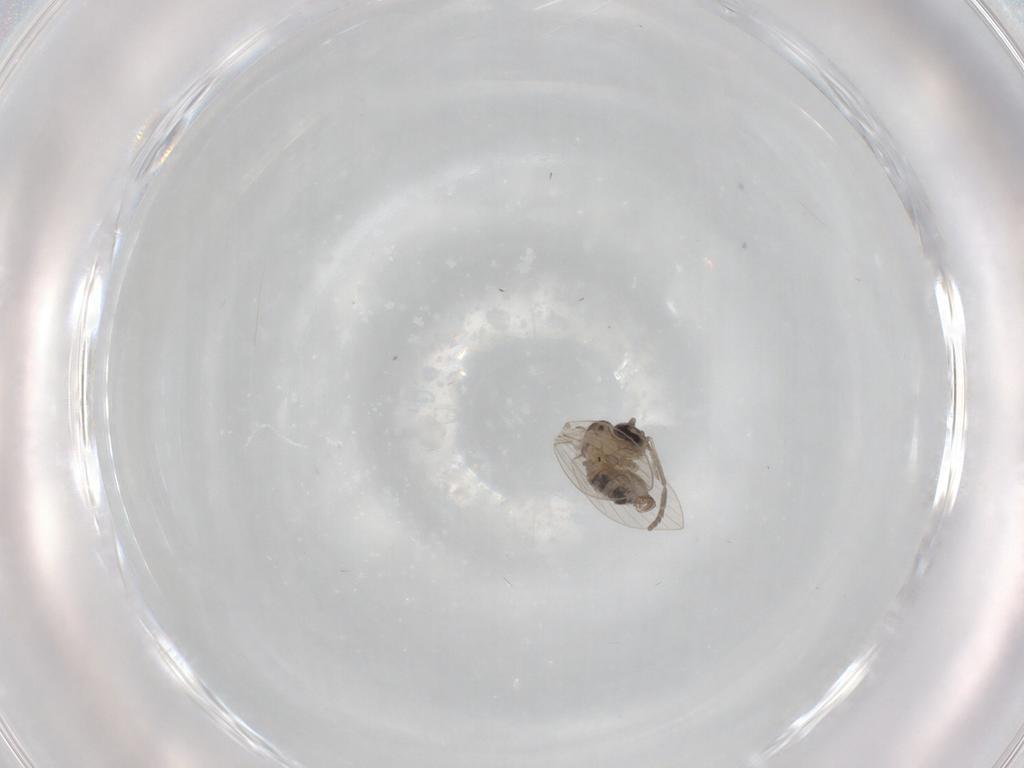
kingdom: Animalia
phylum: Arthropoda
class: Insecta
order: Diptera
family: Psychodidae
